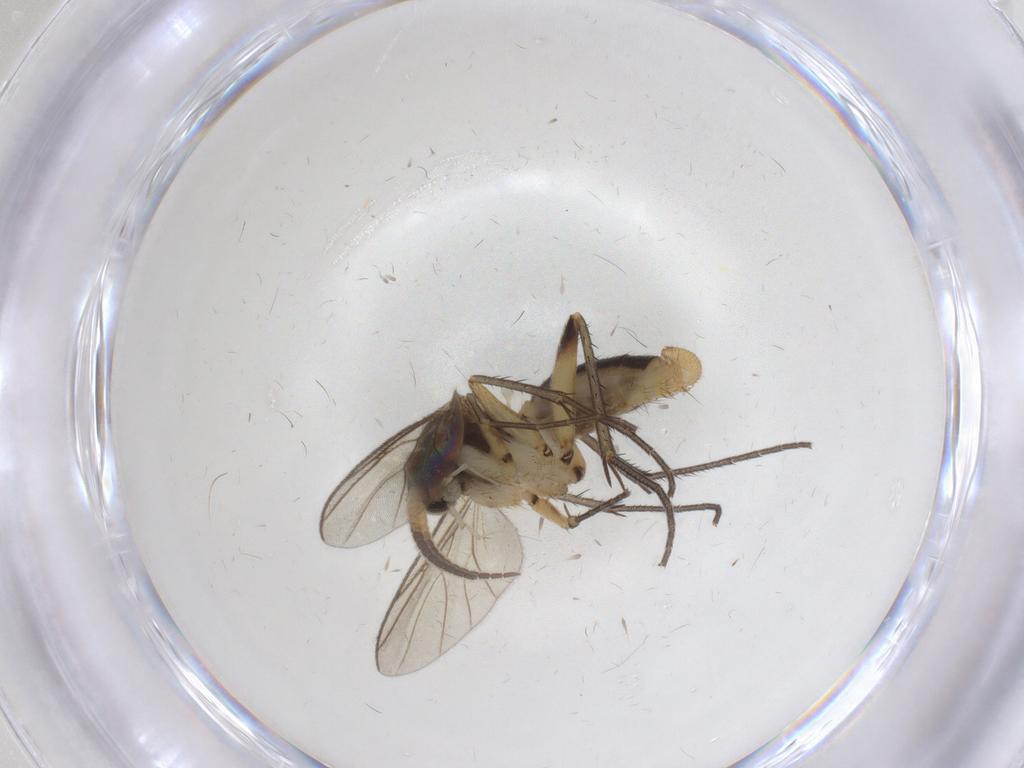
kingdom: Animalia
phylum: Arthropoda
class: Insecta
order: Diptera
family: Mycetophilidae
